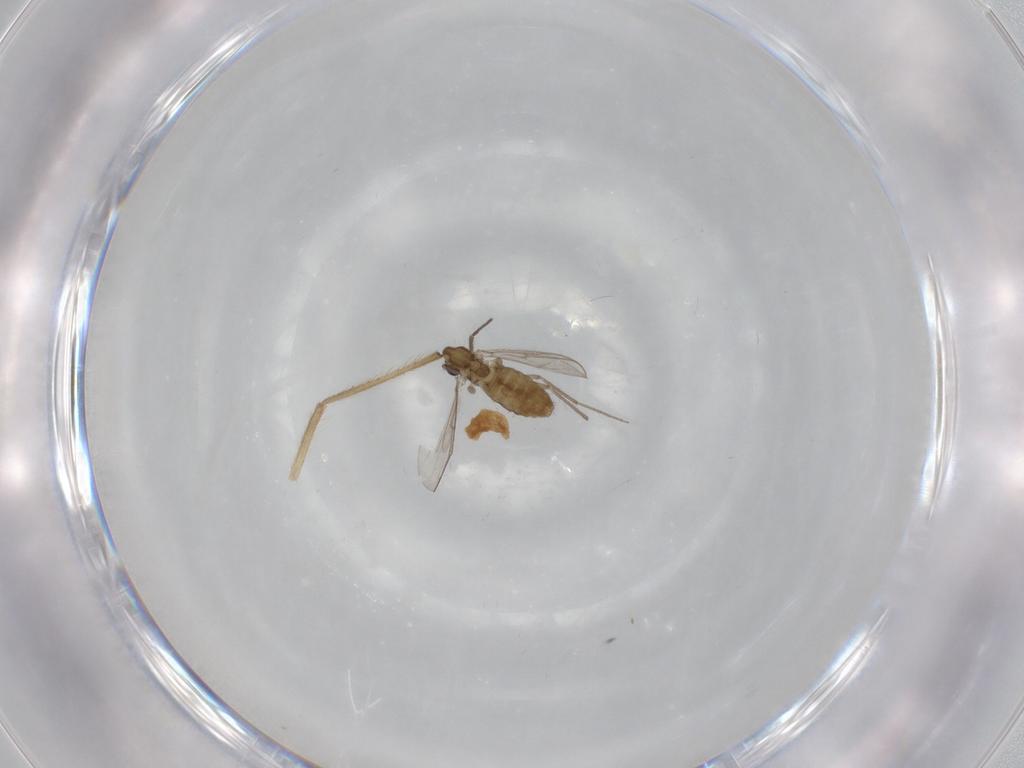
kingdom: Animalia
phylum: Arthropoda
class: Insecta
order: Diptera
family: Chironomidae
